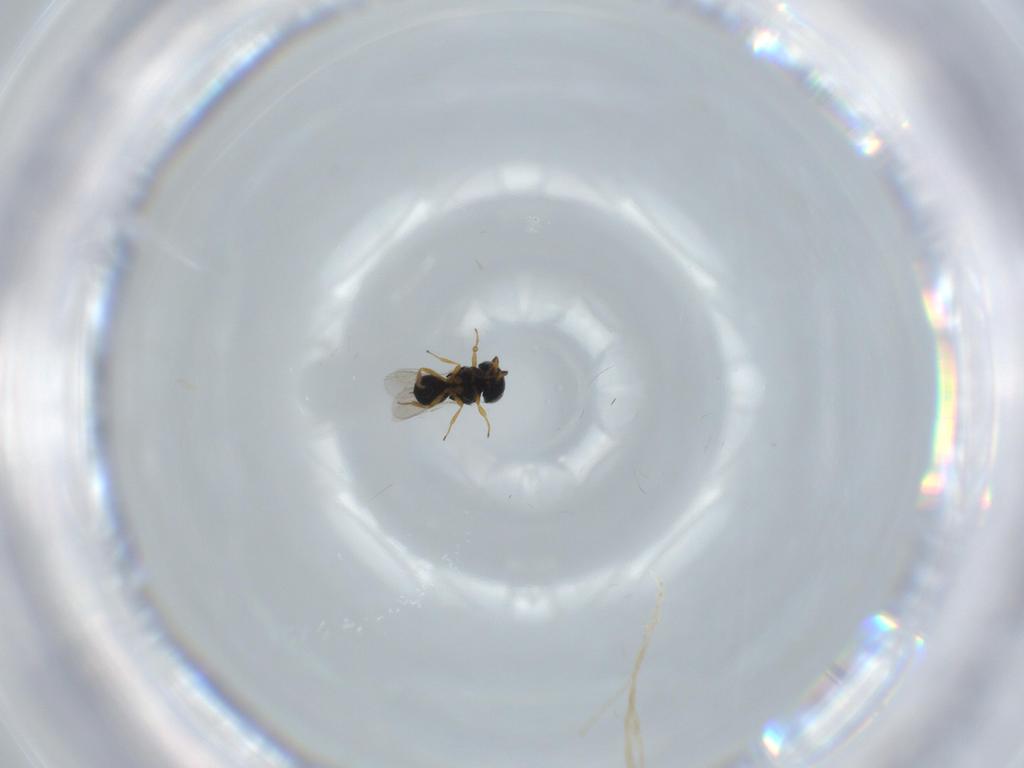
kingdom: Animalia
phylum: Arthropoda
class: Insecta
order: Hymenoptera
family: Scelionidae
